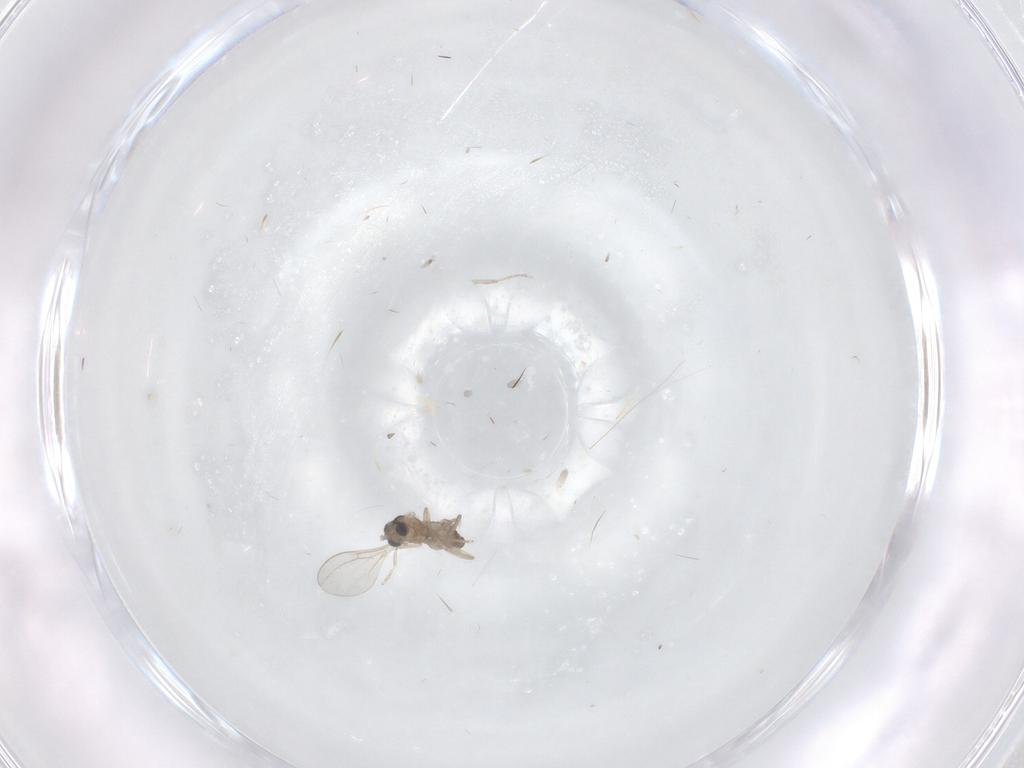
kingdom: Animalia
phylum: Arthropoda
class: Insecta
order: Diptera
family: Cecidomyiidae
